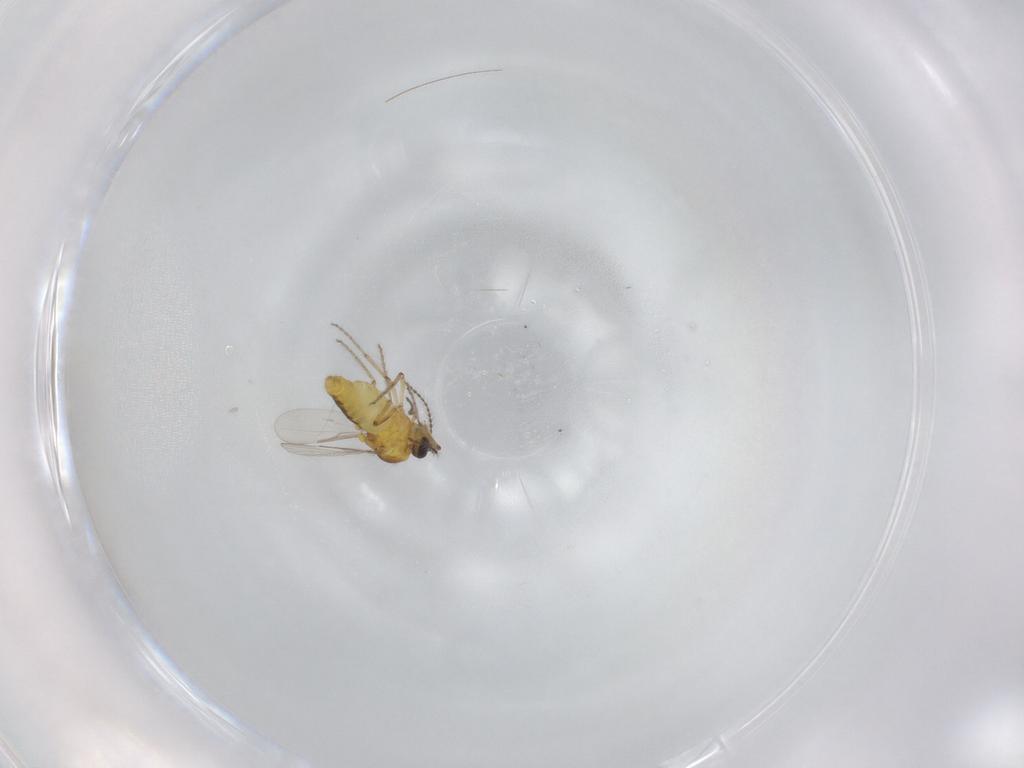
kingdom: Animalia
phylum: Arthropoda
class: Insecta
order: Diptera
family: Ceratopogonidae
